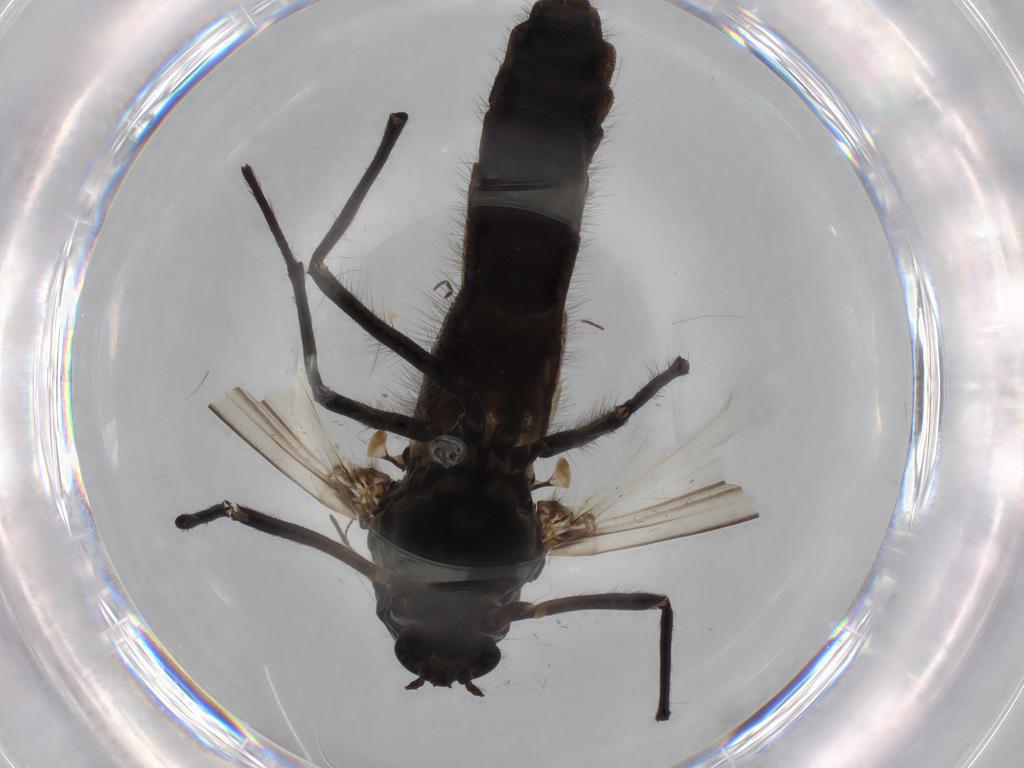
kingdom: Animalia
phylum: Arthropoda
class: Insecta
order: Diptera
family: Chironomidae
